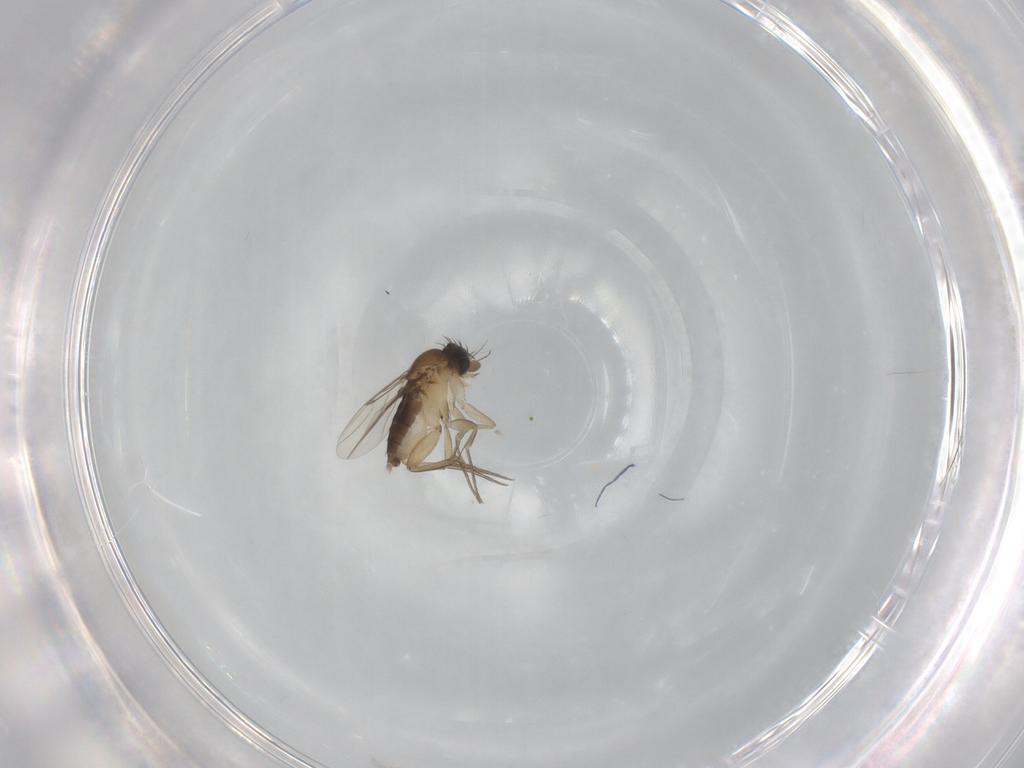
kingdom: Animalia
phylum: Arthropoda
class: Insecta
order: Diptera
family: Phoridae
